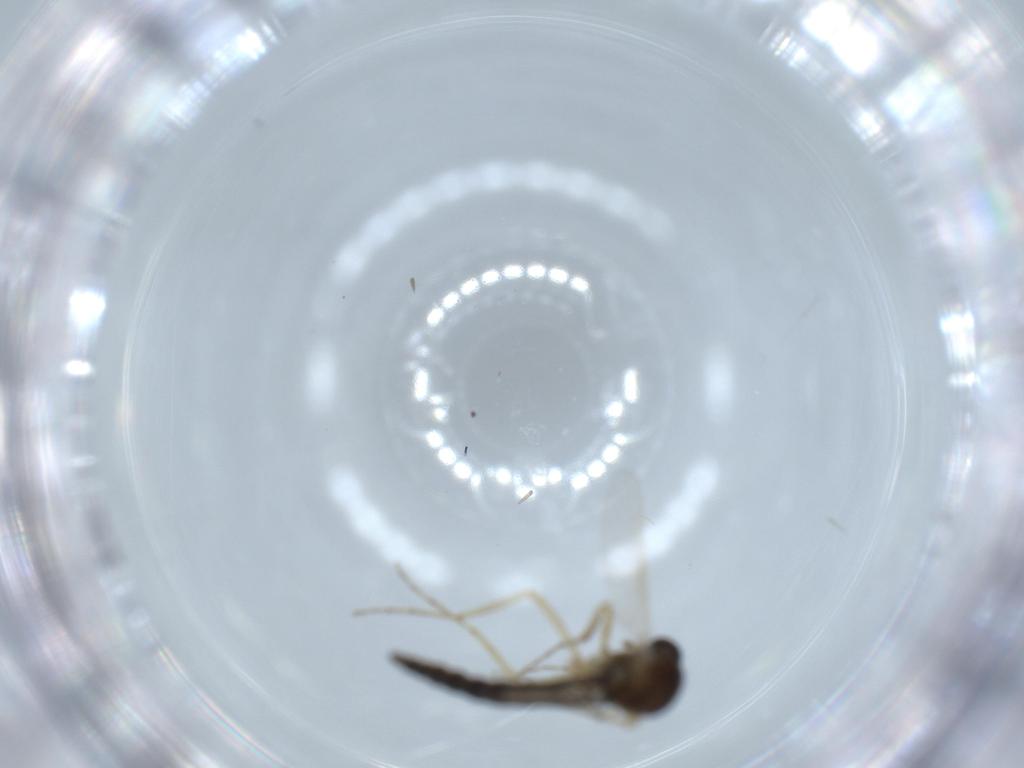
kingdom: Animalia
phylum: Arthropoda
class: Insecta
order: Diptera
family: Ceratopogonidae
